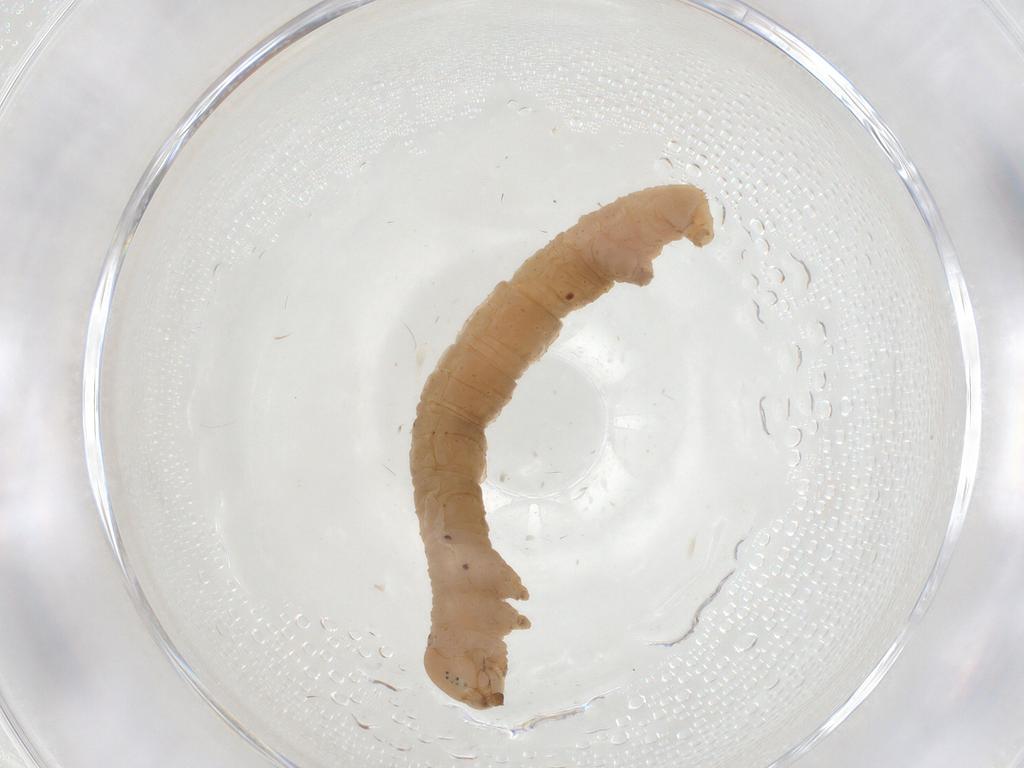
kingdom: Animalia
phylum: Arthropoda
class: Insecta
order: Lepidoptera
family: Geometridae
